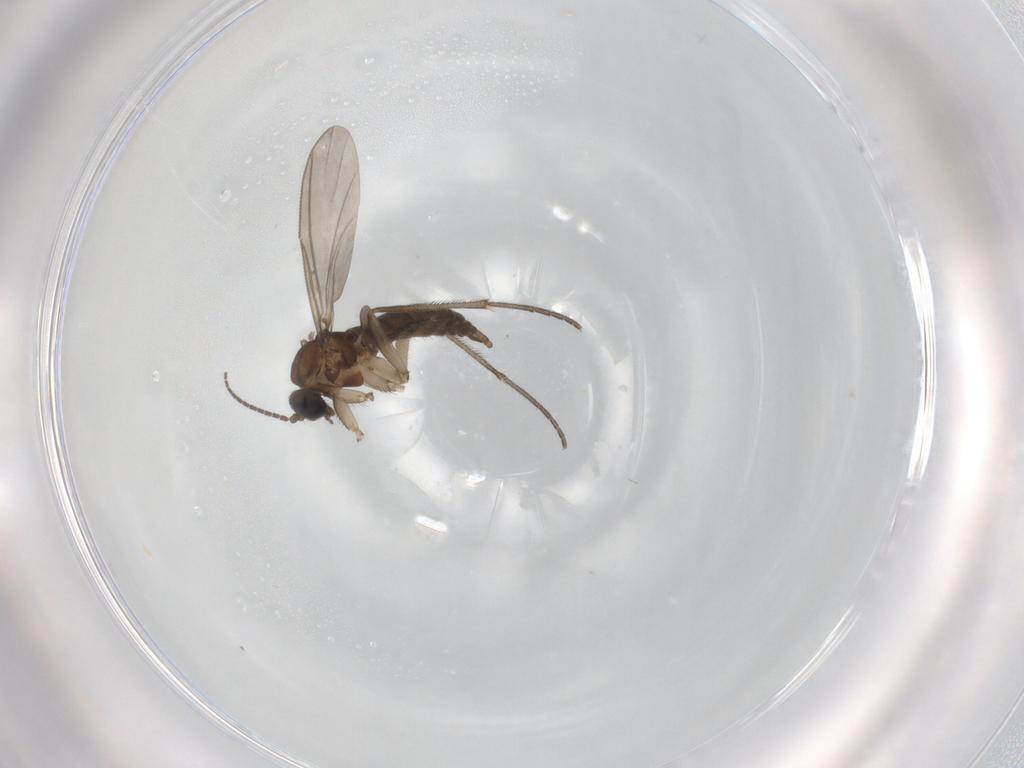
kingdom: Animalia
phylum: Arthropoda
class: Insecta
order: Diptera
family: Sciaridae
